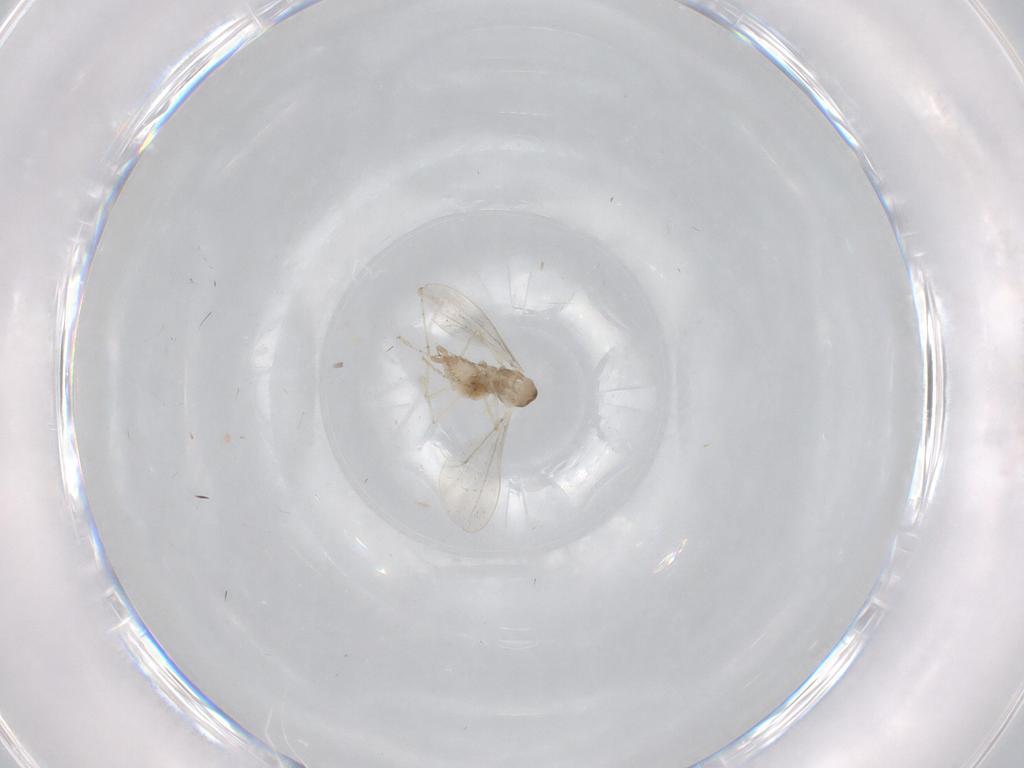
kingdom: Animalia
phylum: Arthropoda
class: Insecta
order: Diptera
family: Cecidomyiidae
